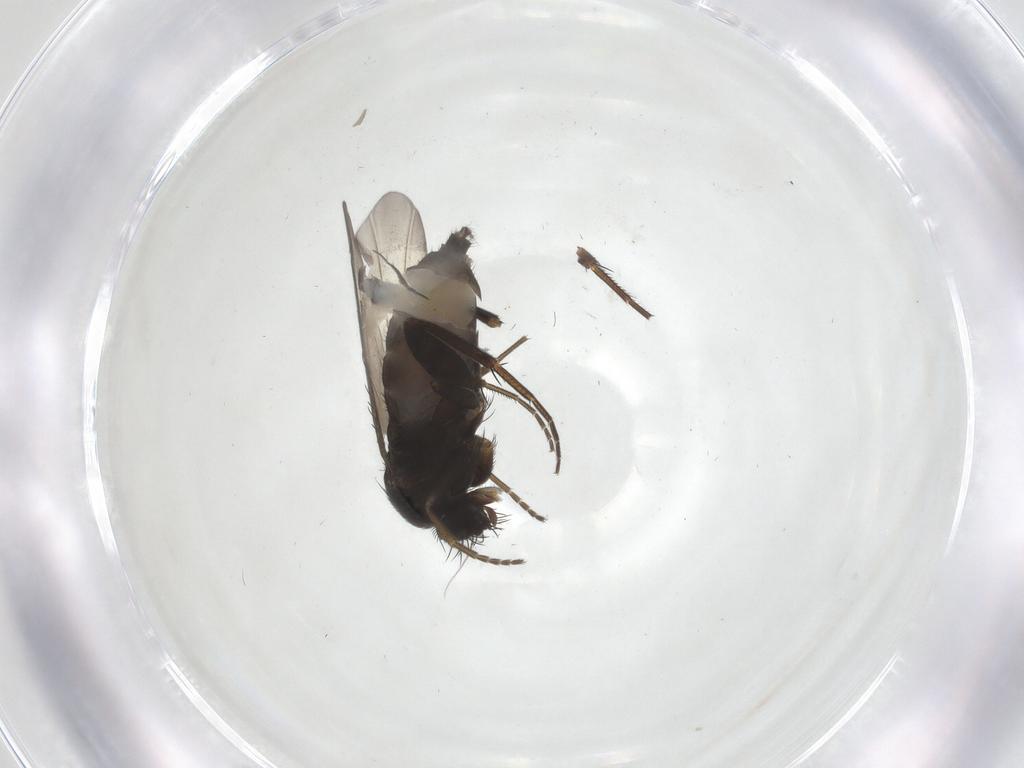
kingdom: Animalia
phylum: Arthropoda
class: Insecta
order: Diptera
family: Phoridae
